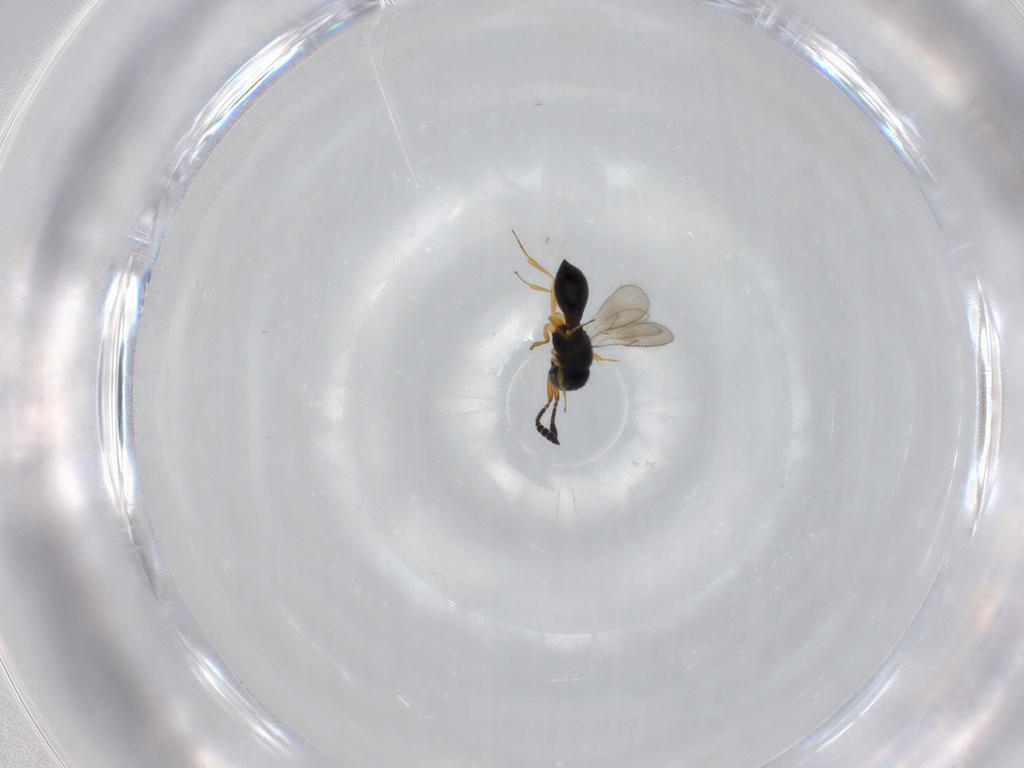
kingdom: Animalia
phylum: Arthropoda
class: Insecta
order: Hymenoptera
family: Scelionidae
